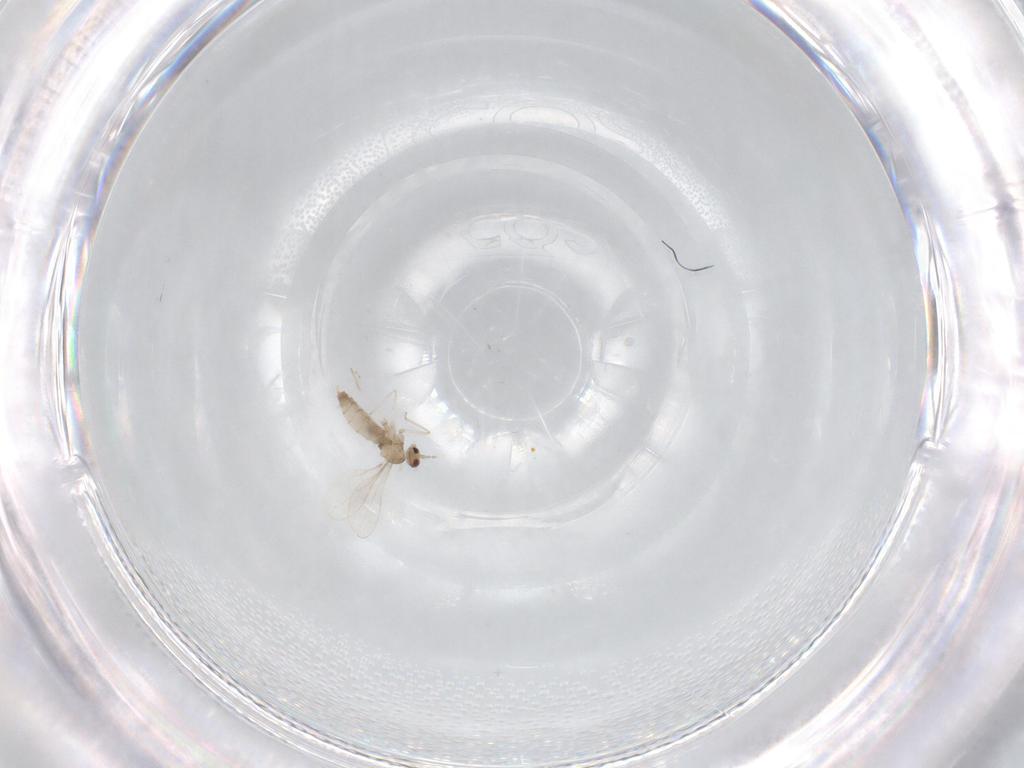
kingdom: Animalia
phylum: Arthropoda
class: Insecta
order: Diptera
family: Cecidomyiidae
